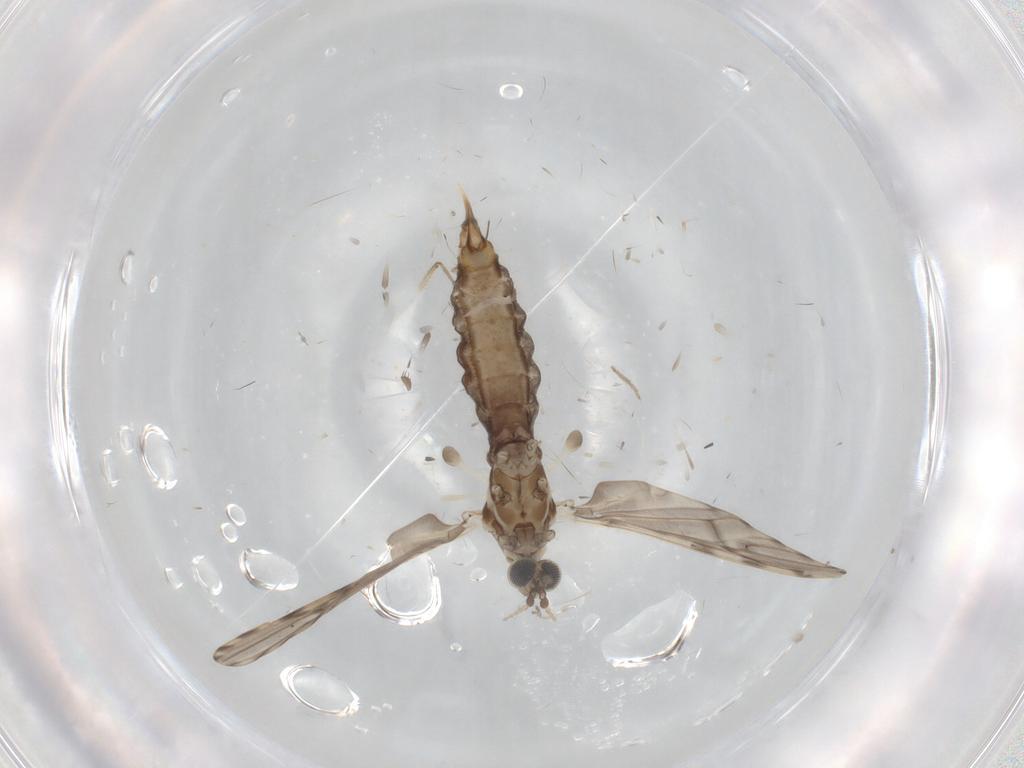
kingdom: Animalia
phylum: Arthropoda
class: Insecta
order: Diptera
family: Limoniidae
